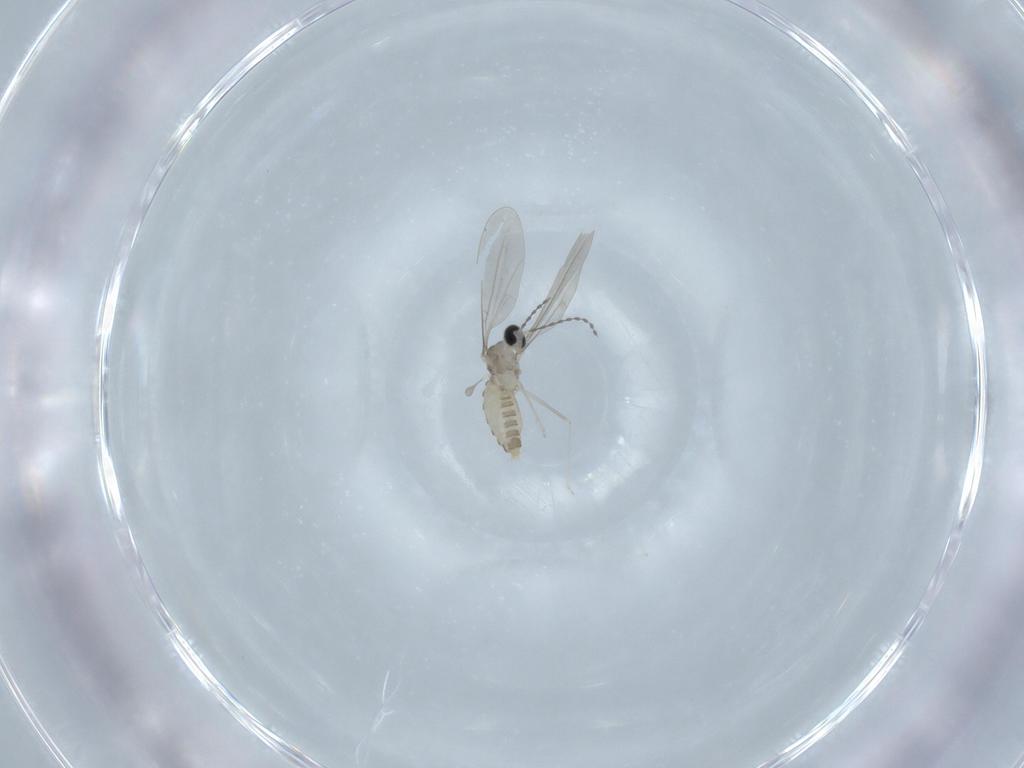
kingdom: Animalia
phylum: Arthropoda
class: Insecta
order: Diptera
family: Cecidomyiidae
